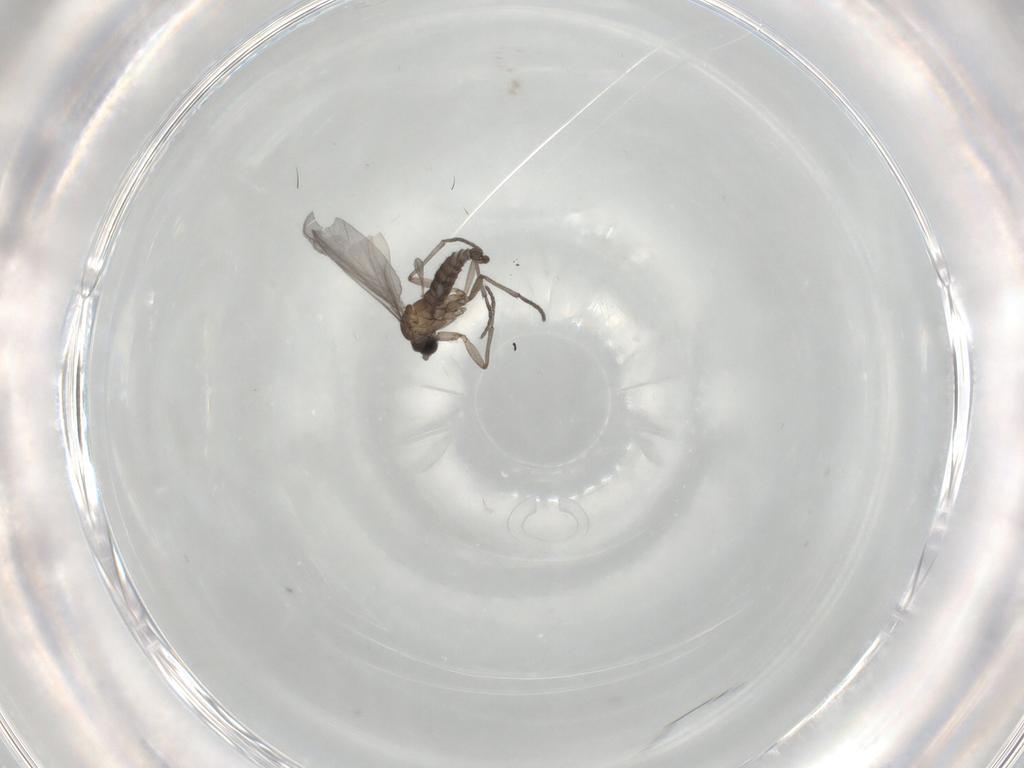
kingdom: Animalia
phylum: Arthropoda
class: Insecta
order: Diptera
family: Sciaridae
